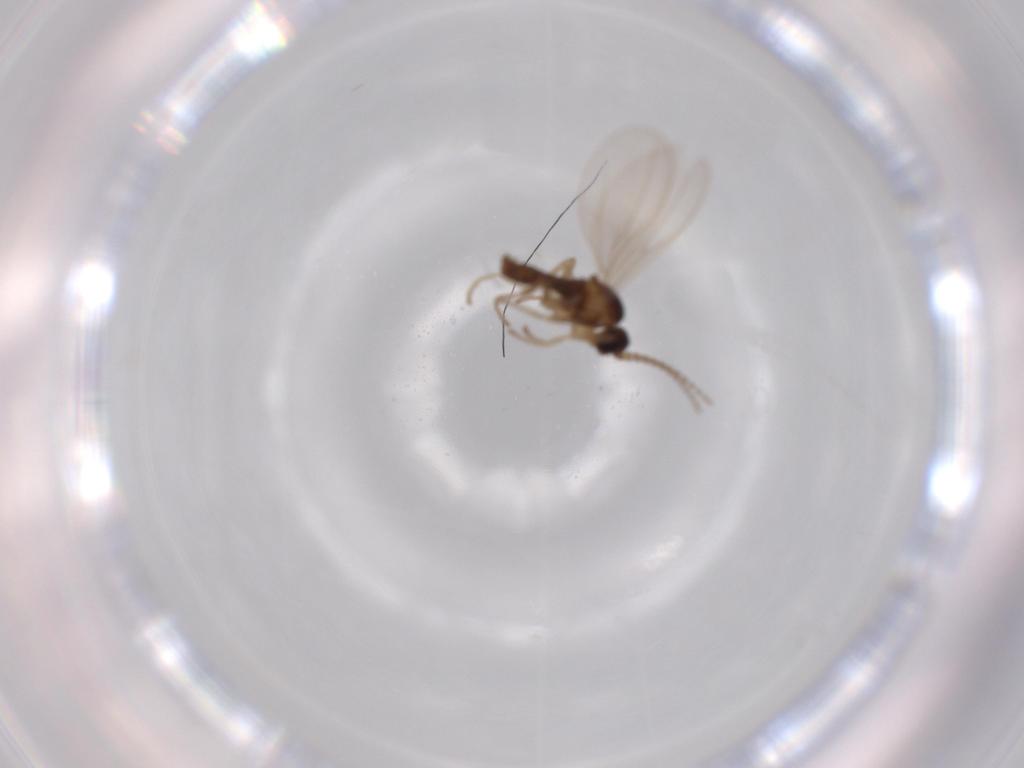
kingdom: Animalia
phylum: Arthropoda
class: Insecta
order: Diptera
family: Cecidomyiidae
